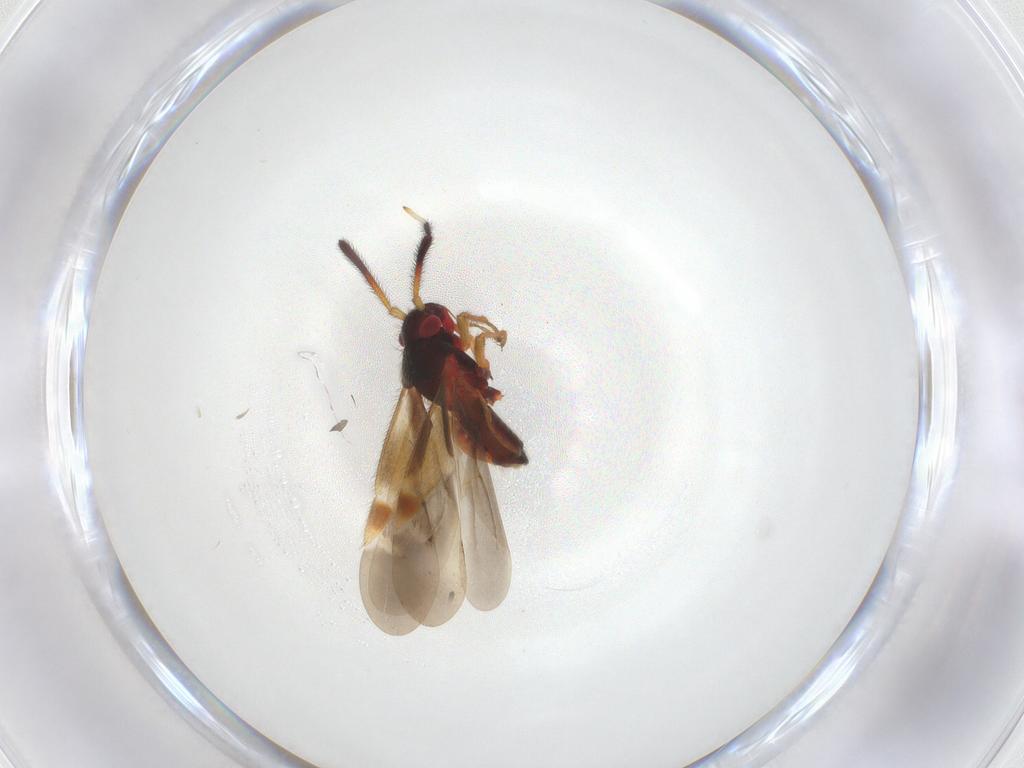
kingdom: Animalia
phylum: Arthropoda
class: Insecta
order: Hemiptera
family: Miridae
